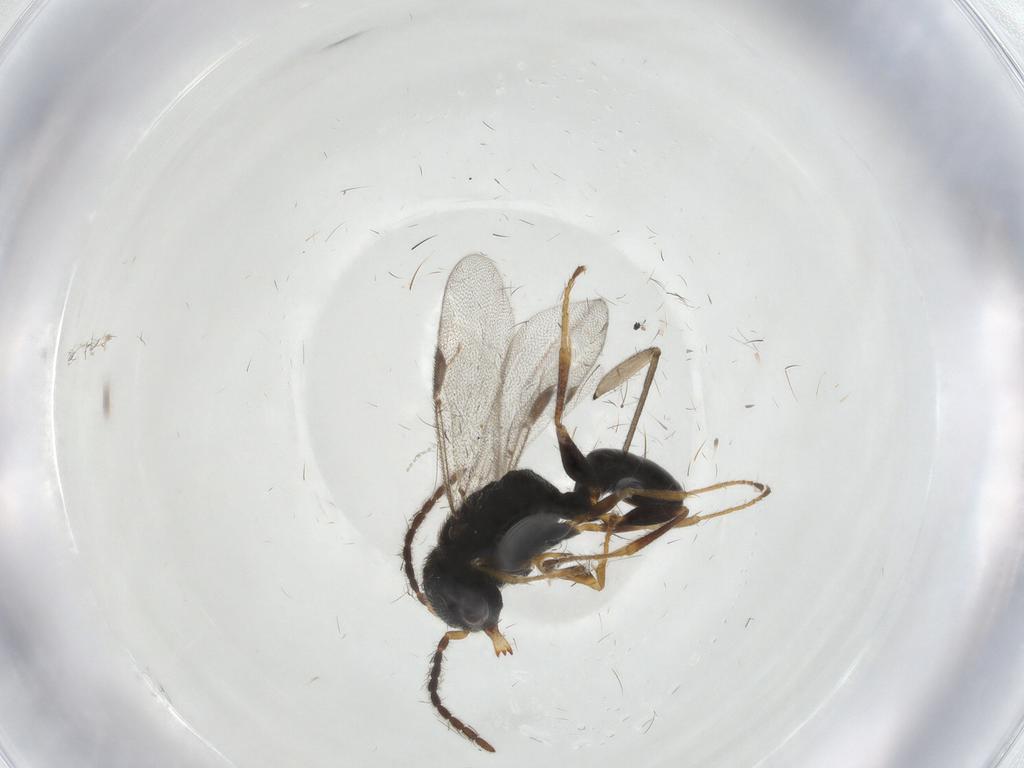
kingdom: Animalia
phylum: Arthropoda
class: Insecta
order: Hymenoptera
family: Dryinidae
